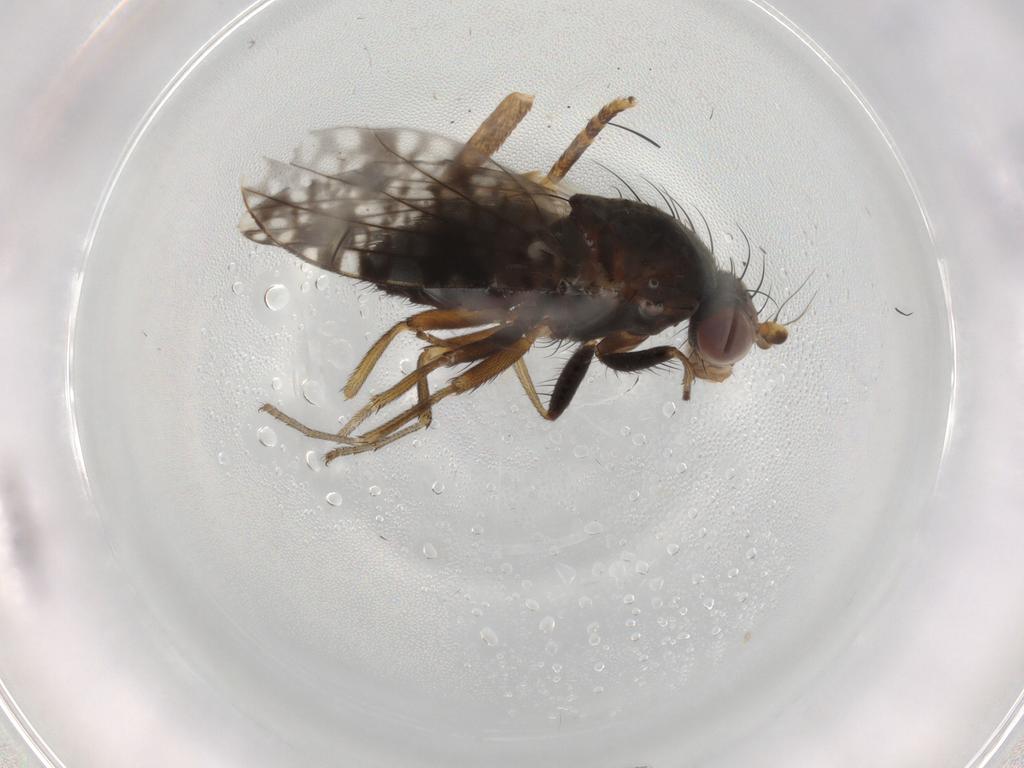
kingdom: Animalia
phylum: Arthropoda
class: Insecta
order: Diptera
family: Tephritidae
